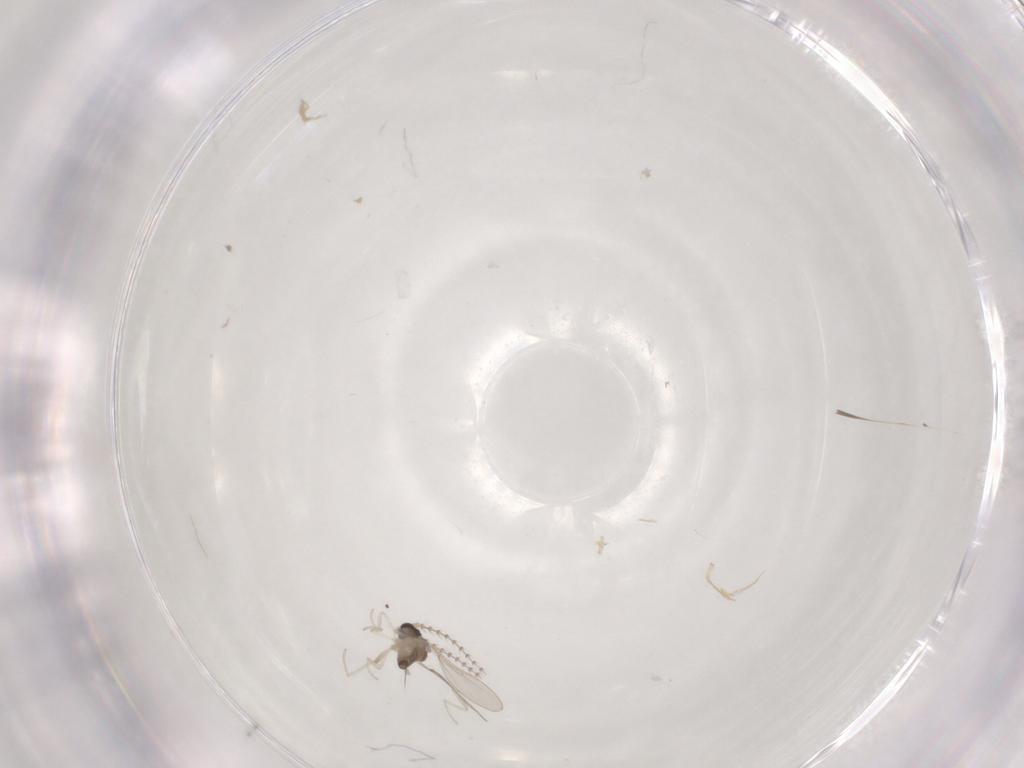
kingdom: Animalia
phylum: Arthropoda
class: Insecta
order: Diptera
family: Cecidomyiidae
